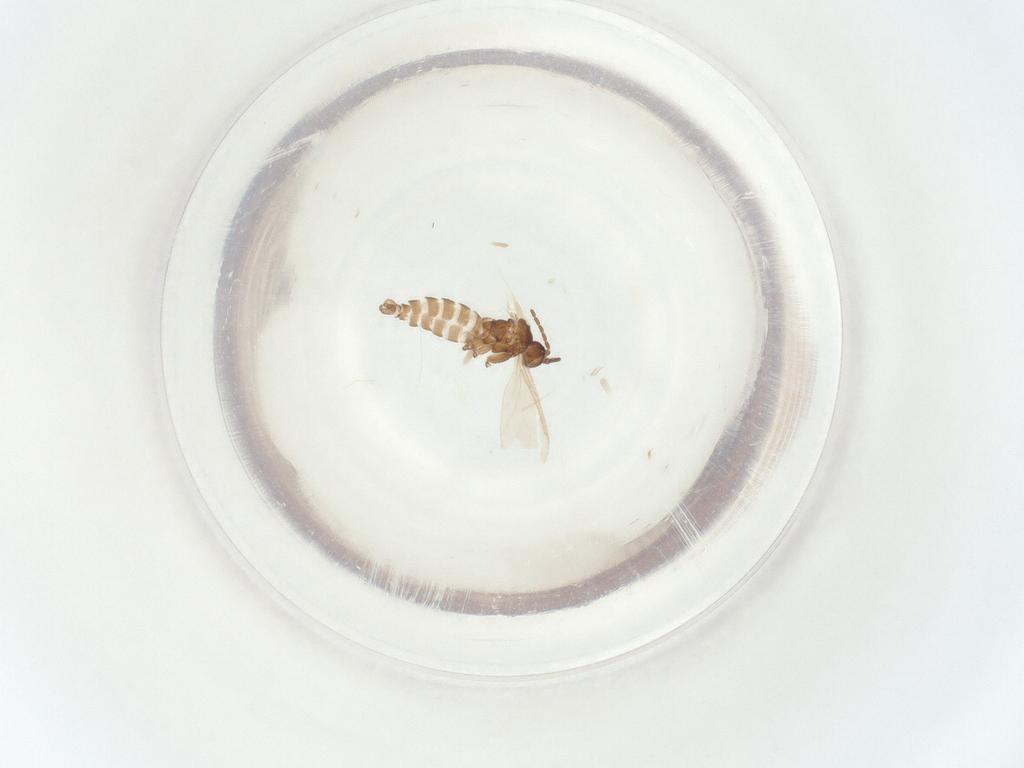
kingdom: Animalia
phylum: Arthropoda
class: Insecta
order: Diptera
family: Sciaridae
